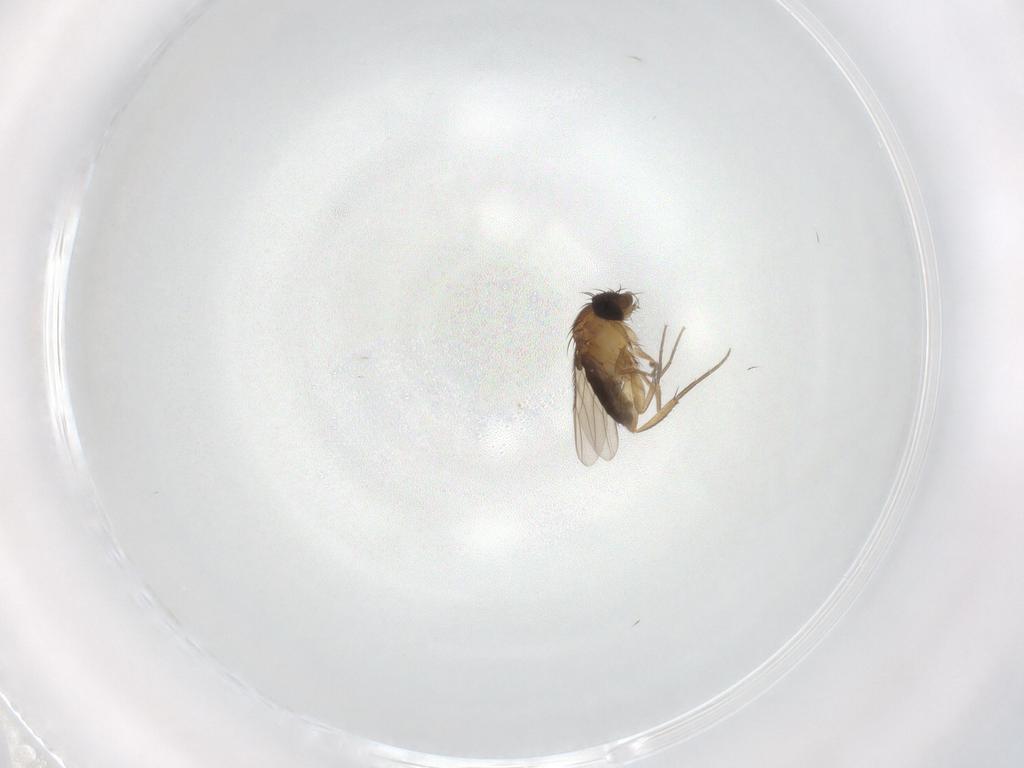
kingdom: Animalia
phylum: Arthropoda
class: Insecta
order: Diptera
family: Phoridae
